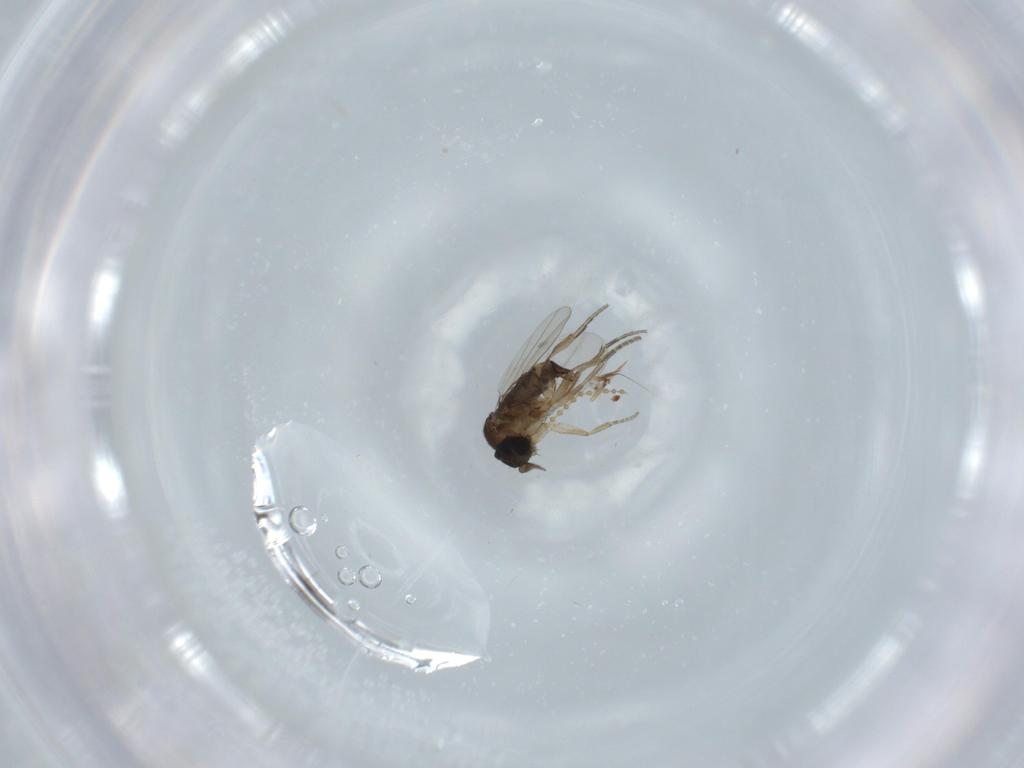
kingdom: Animalia
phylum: Arthropoda
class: Insecta
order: Diptera
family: Phoridae
